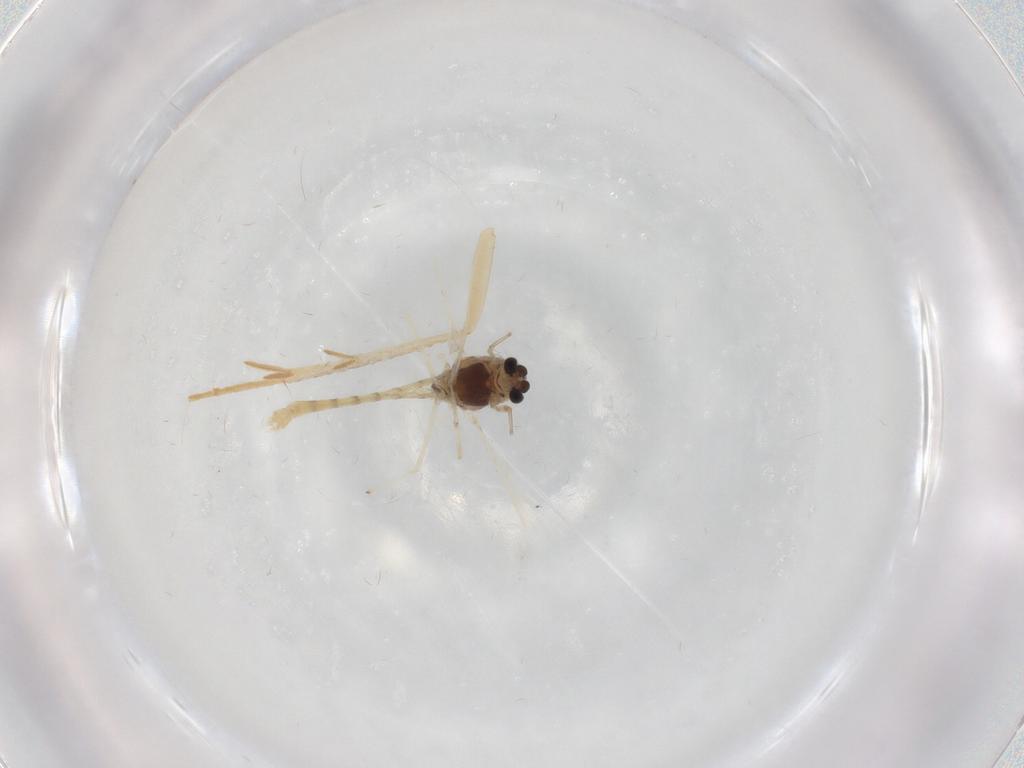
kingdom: Animalia
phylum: Arthropoda
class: Insecta
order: Diptera
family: Chironomidae
